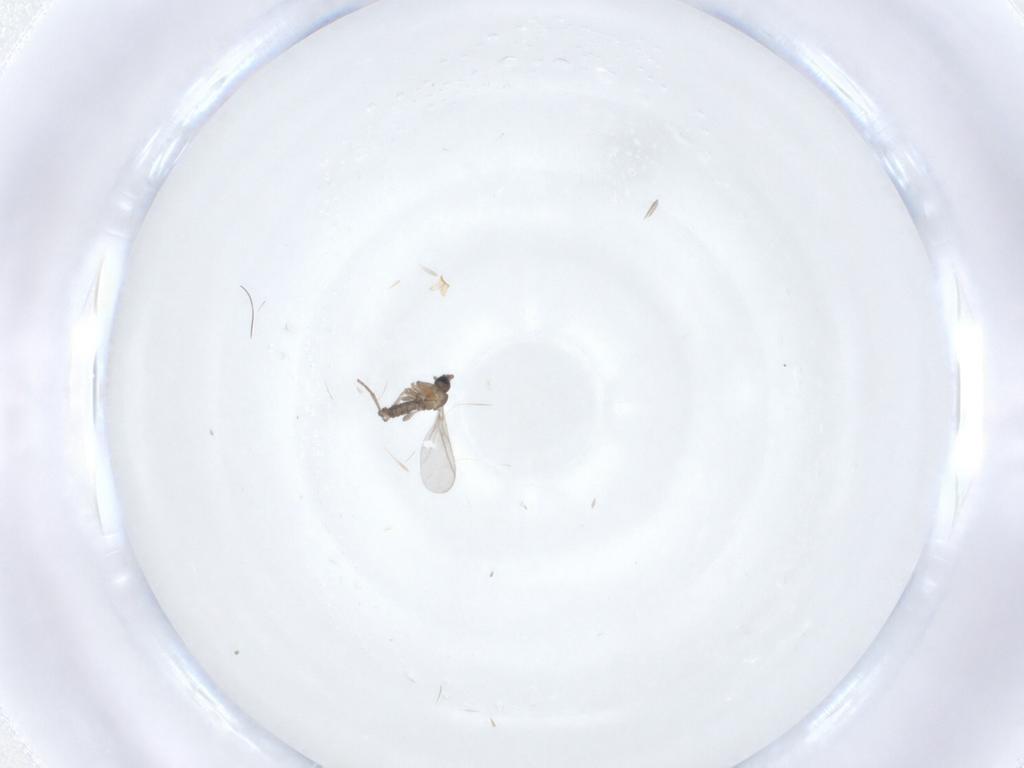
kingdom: Animalia
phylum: Arthropoda
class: Insecta
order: Diptera
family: Sciaridae
